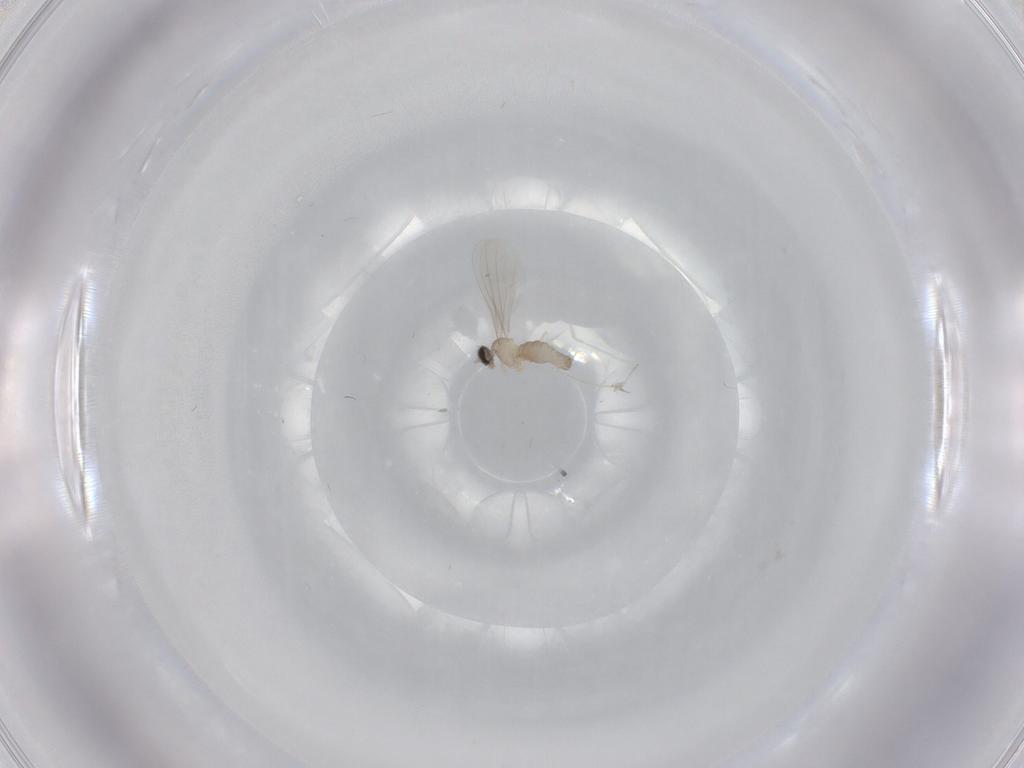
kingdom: Animalia
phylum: Arthropoda
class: Insecta
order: Diptera
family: Cecidomyiidae
